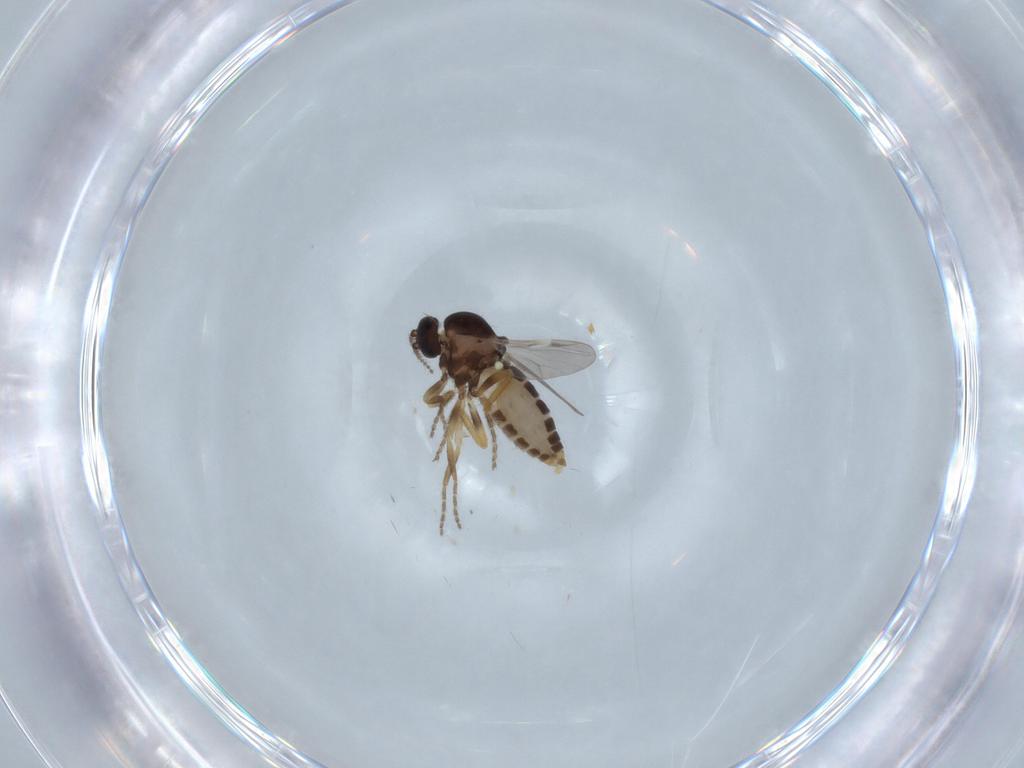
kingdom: Animalia
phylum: Arthropoda
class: Insecta
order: Diptera
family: Ceratopogonidae
